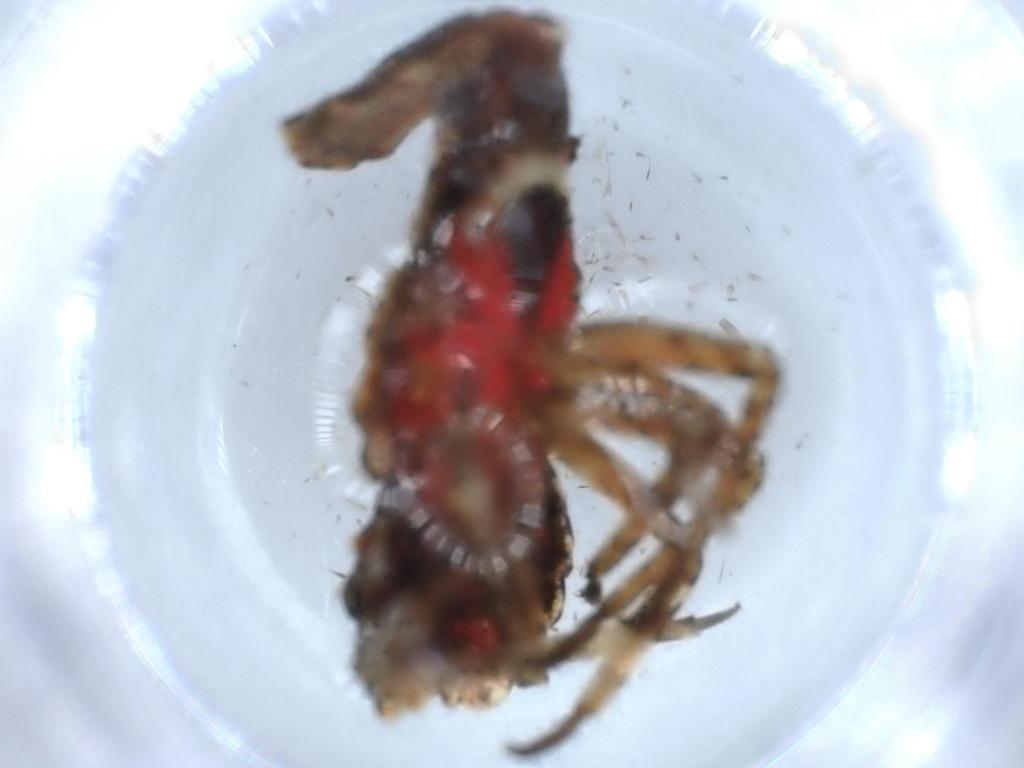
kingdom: Animalia
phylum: Arthropoda
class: Insecta
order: Hemiptera
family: Fulgoridae
